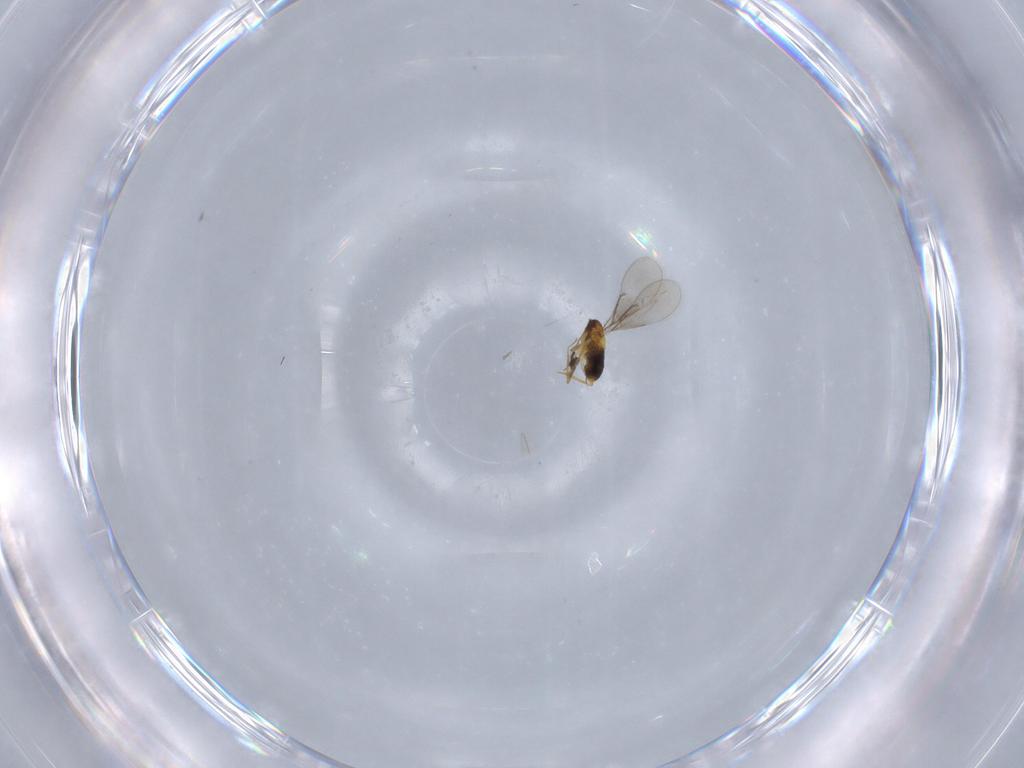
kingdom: Animalia
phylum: Arthropoda
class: Insecta
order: Hymenoptera
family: Aphelinidae
